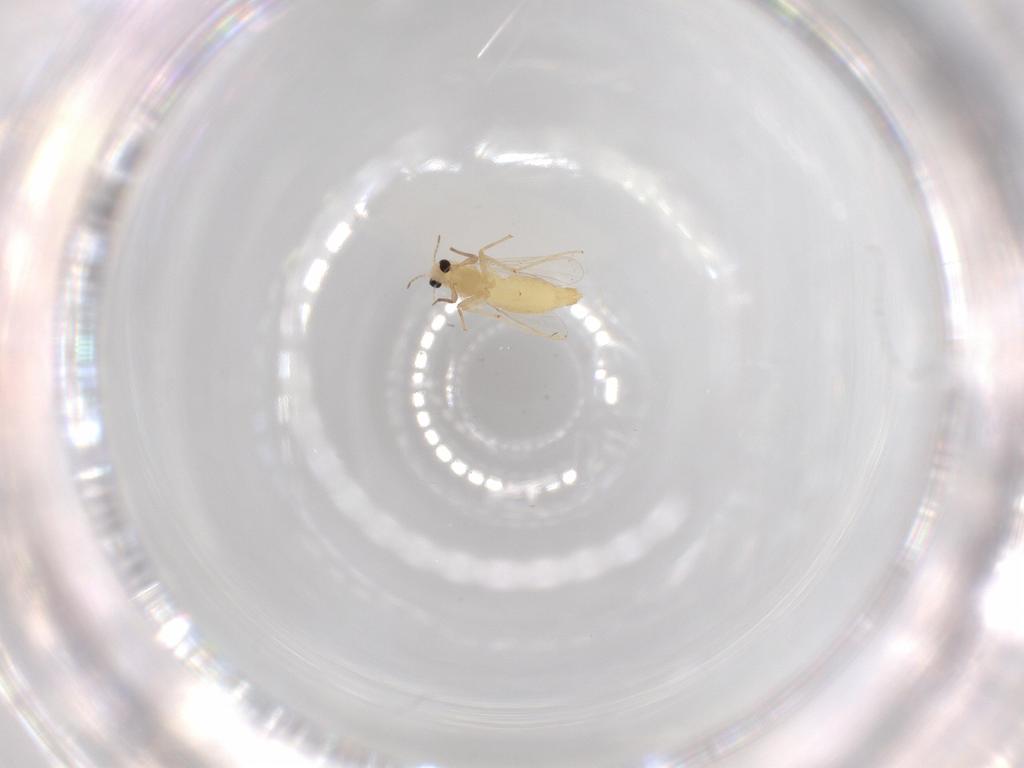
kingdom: Animalia
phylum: Arthropoda
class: Insecta
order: Diptera
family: Chironomidae
